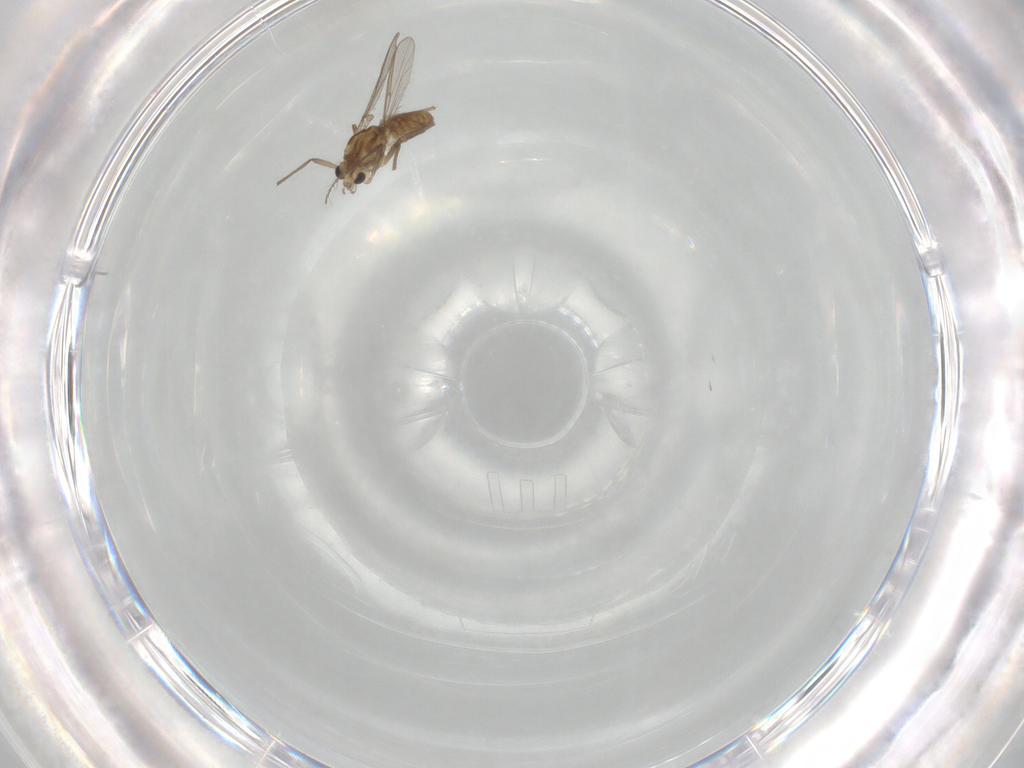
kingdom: Animalia
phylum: Arthropoda
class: Insecta
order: Diptera
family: Chironomidae
